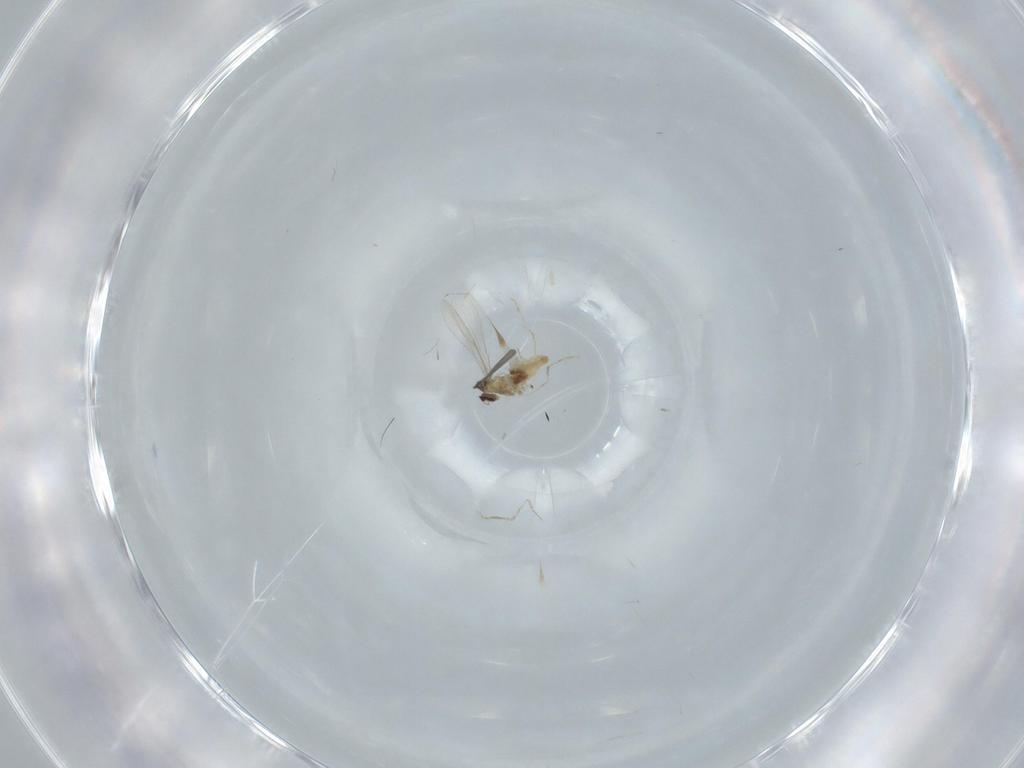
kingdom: Animalia
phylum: Arthropoda
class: Insecta
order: Diptera
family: Cecidomyiidae
